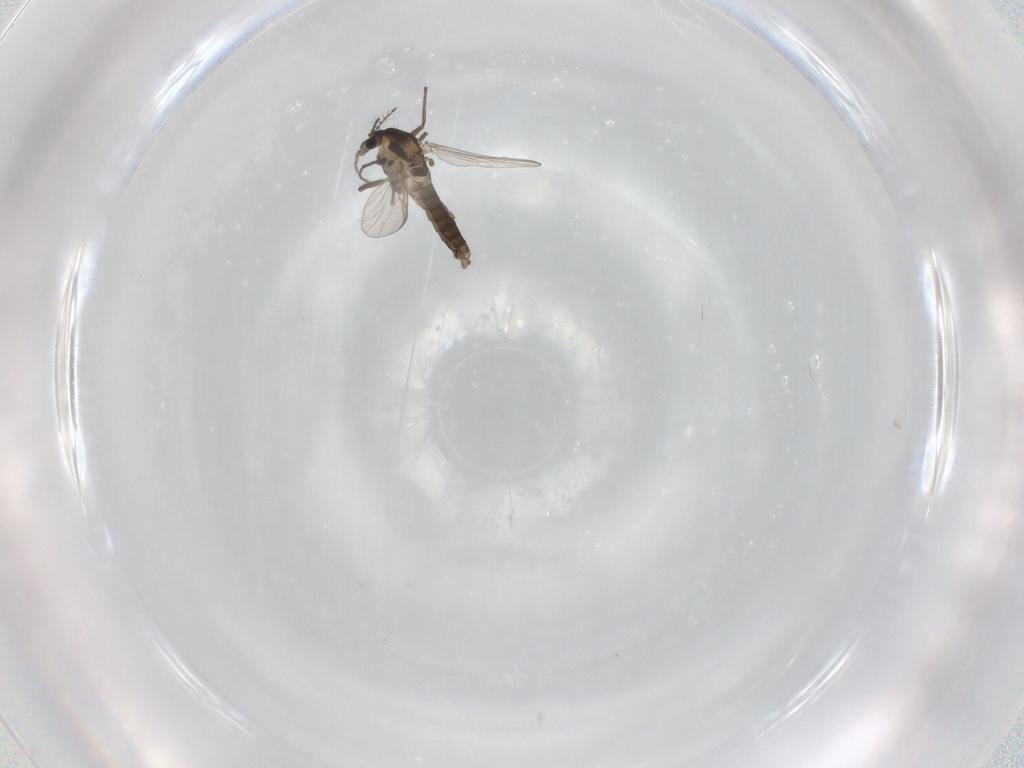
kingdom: Animalia
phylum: Arthropoda
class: Insecta
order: Diptera
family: Chironomidae
